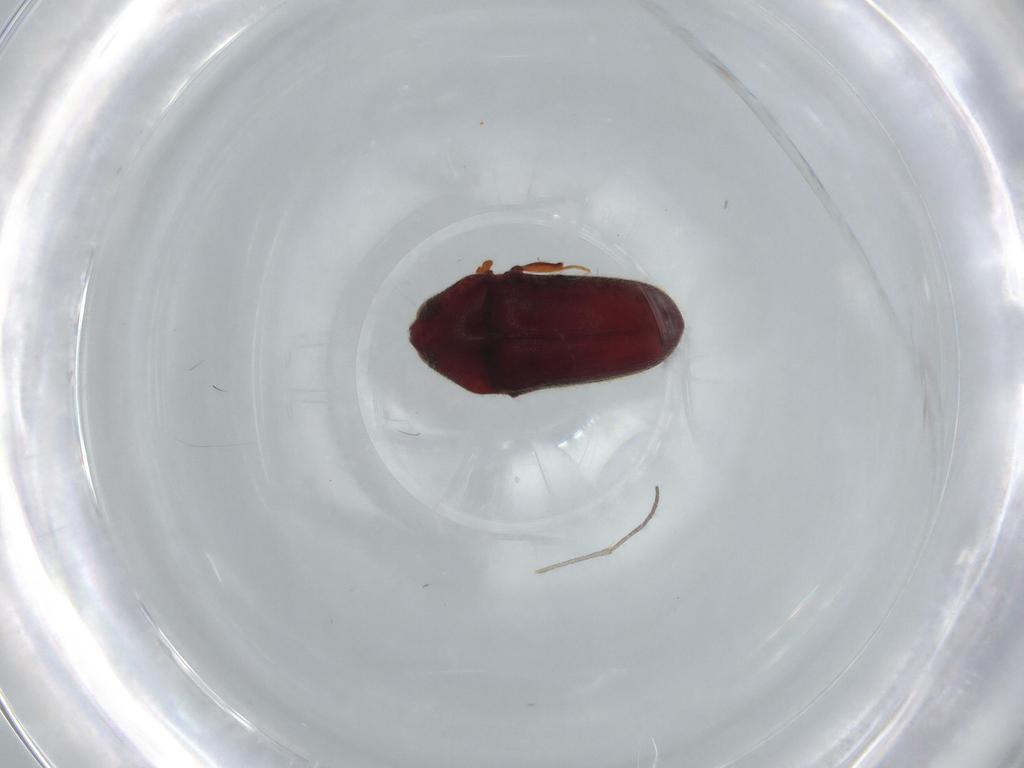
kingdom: Animalia
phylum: Arthropoda
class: Insecta
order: Coleoptera
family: Throscidae
